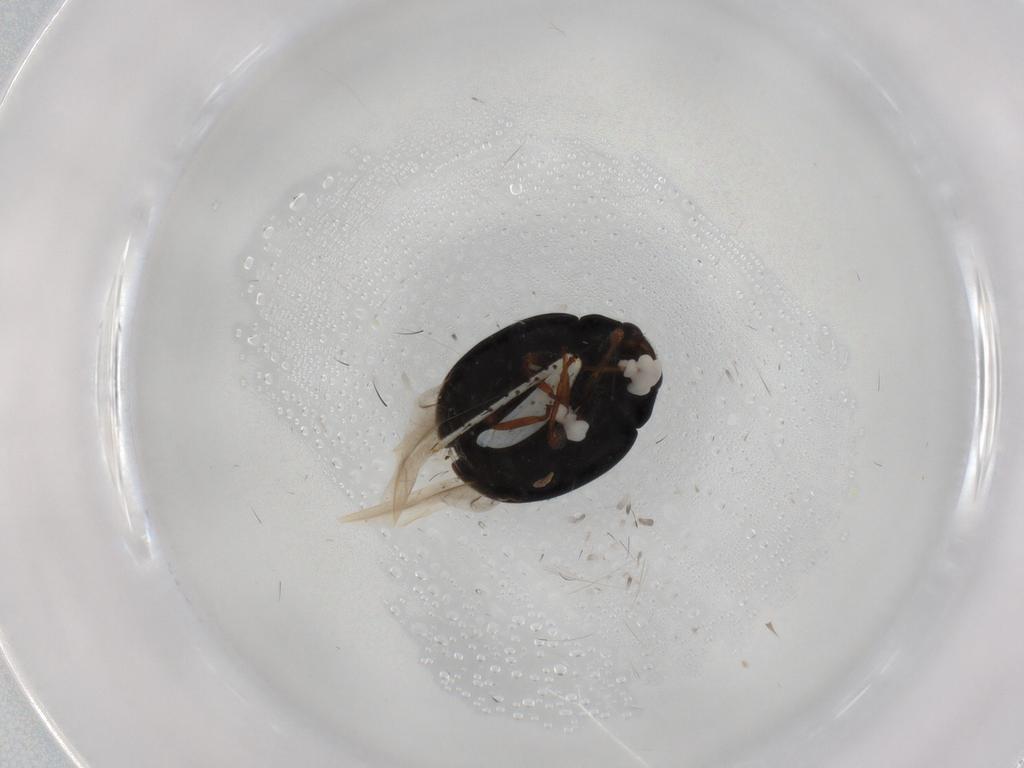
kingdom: Animalia
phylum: Arthropoda
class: Insecta
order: Coleoptera
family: Coccinellidae
